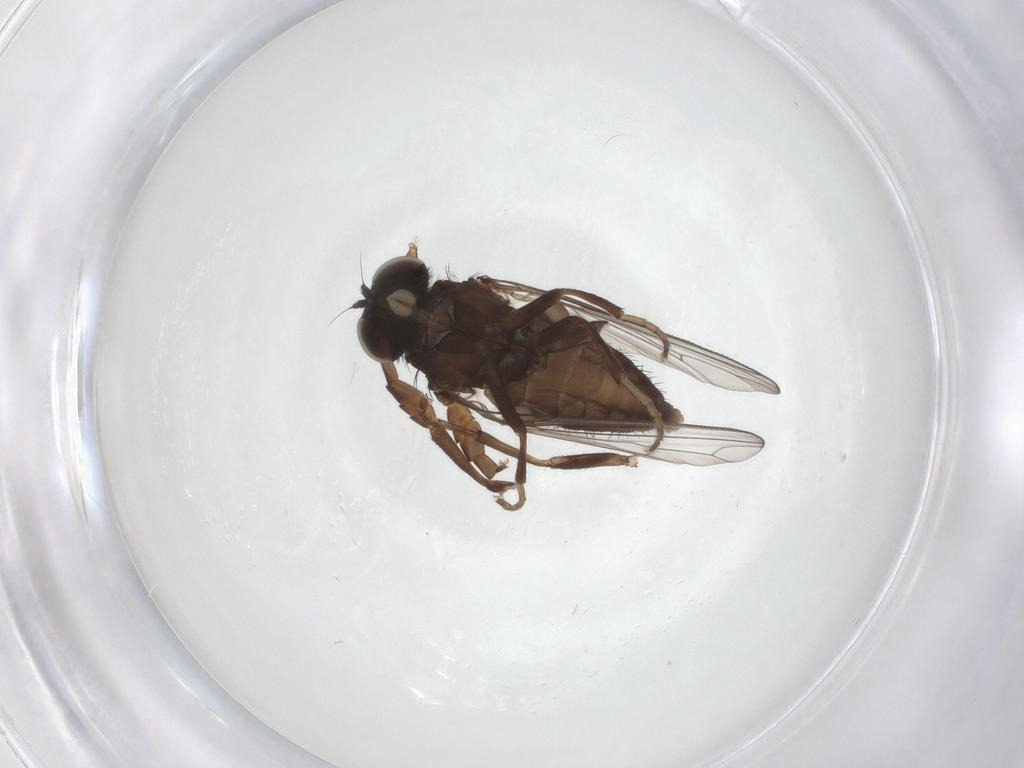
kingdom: Animalia
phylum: Arthropoda
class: Insecta
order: Diptera
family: Platypezidae
